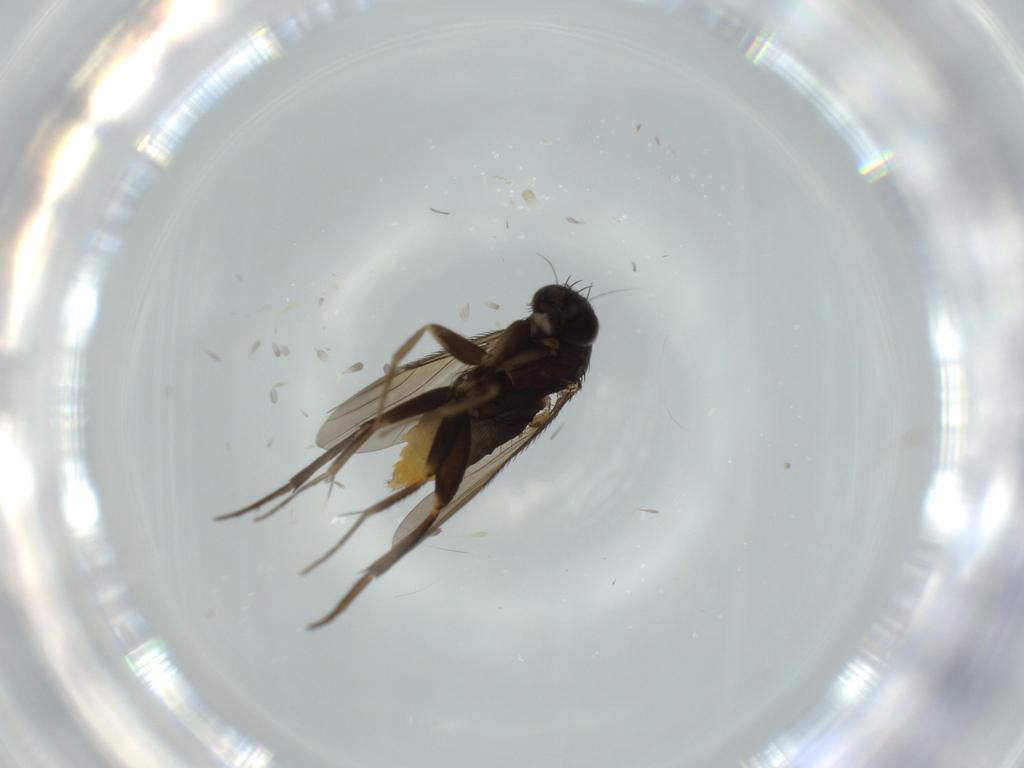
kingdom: Animalia
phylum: Arthropoda
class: Insecta
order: Diptera
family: Phoridae
